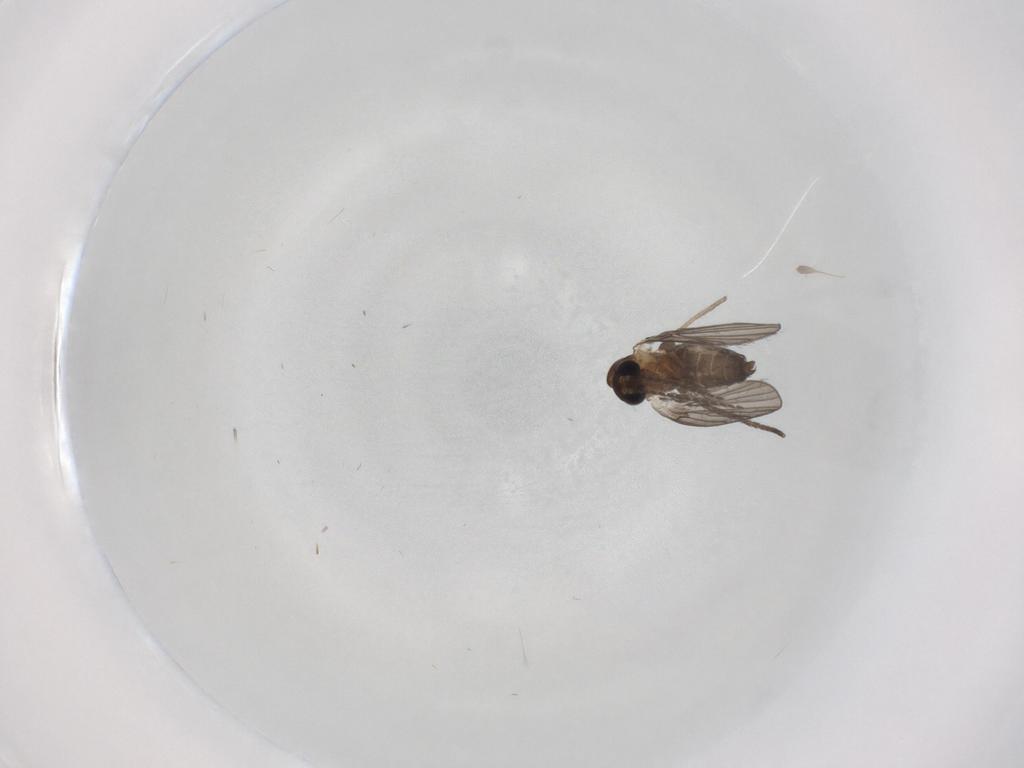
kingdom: Animalia
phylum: Arthropoda
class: Insecta
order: Diptera
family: Psychodidae
